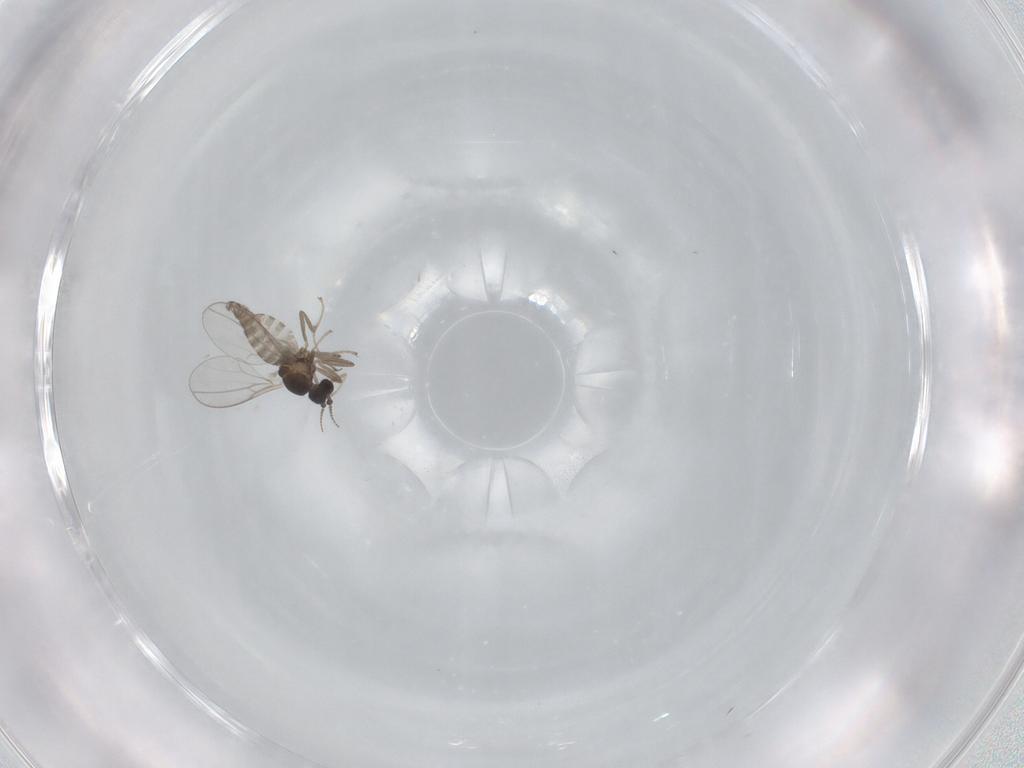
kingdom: Animalia
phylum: Arthropoda
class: Insecta
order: Diptera
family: Cecidomyiidae
